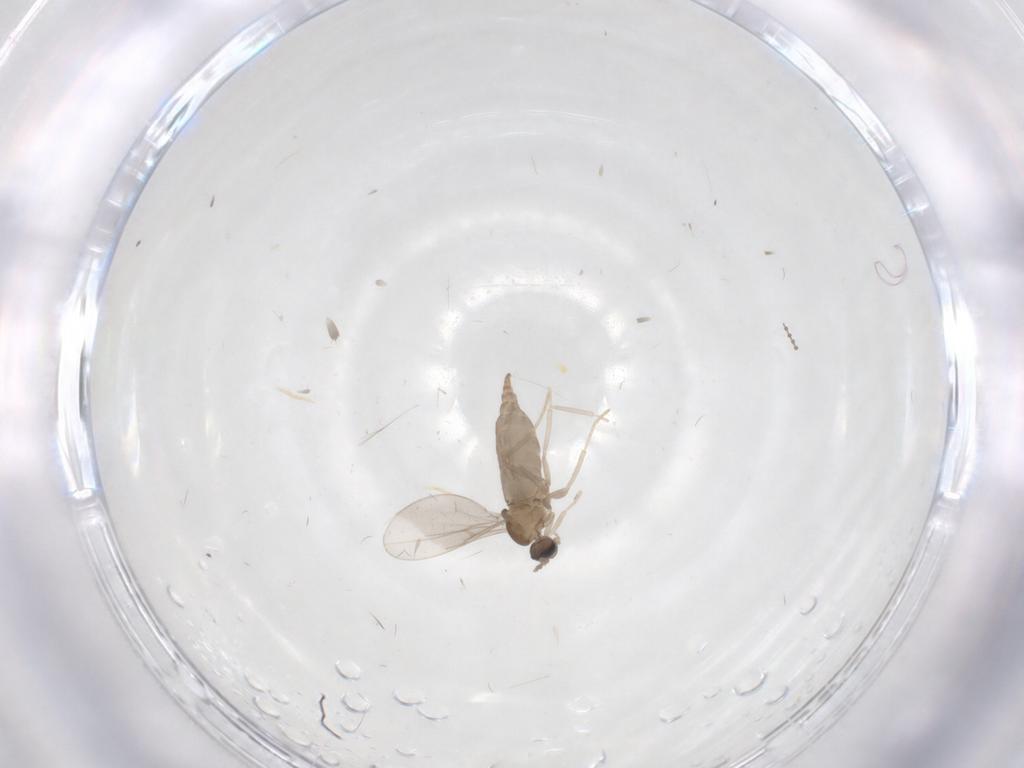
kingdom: Animalia
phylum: Arthropoda
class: Insecta
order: Diptera
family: Cecidomyiidae
